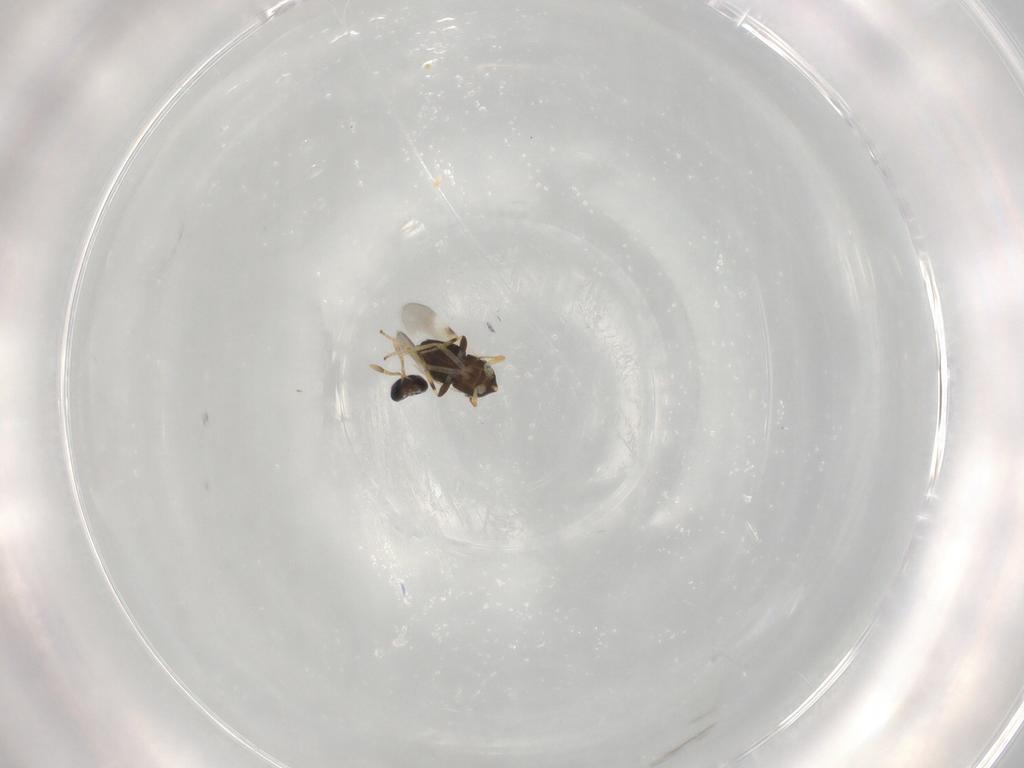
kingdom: Animalia
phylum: Arthropoda
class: Insecta
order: Hymenoptera
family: Encyrtidae
